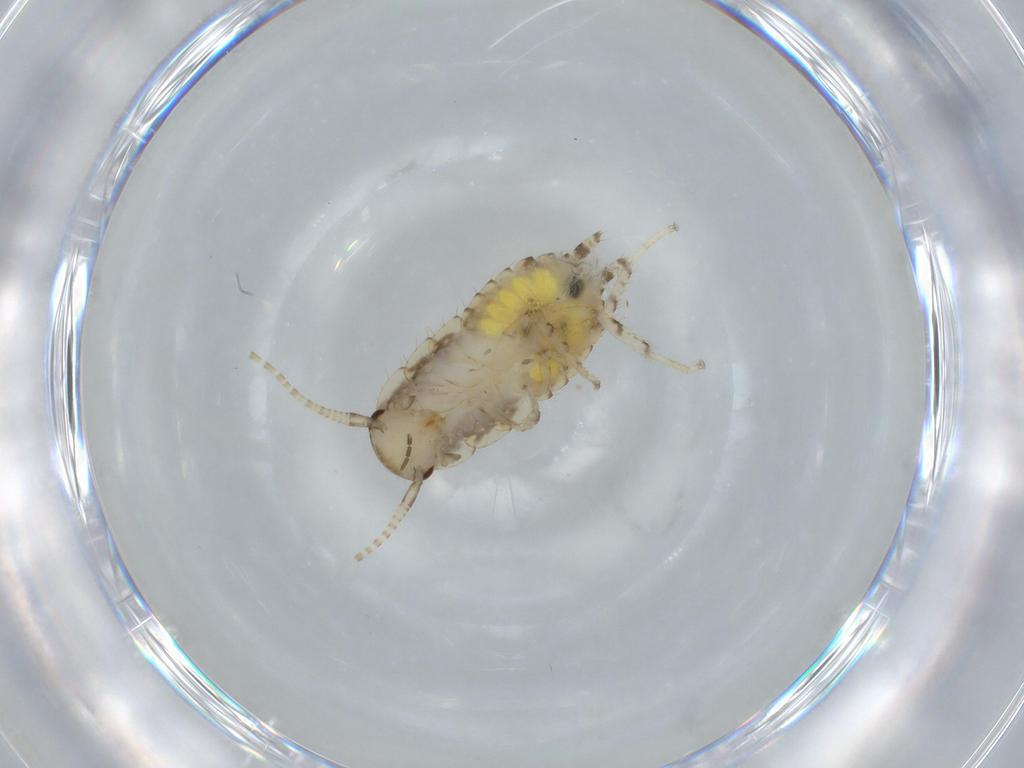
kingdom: Animalia
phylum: Arthropoda
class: Insecta
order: Blattodea
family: Ectobiidae
